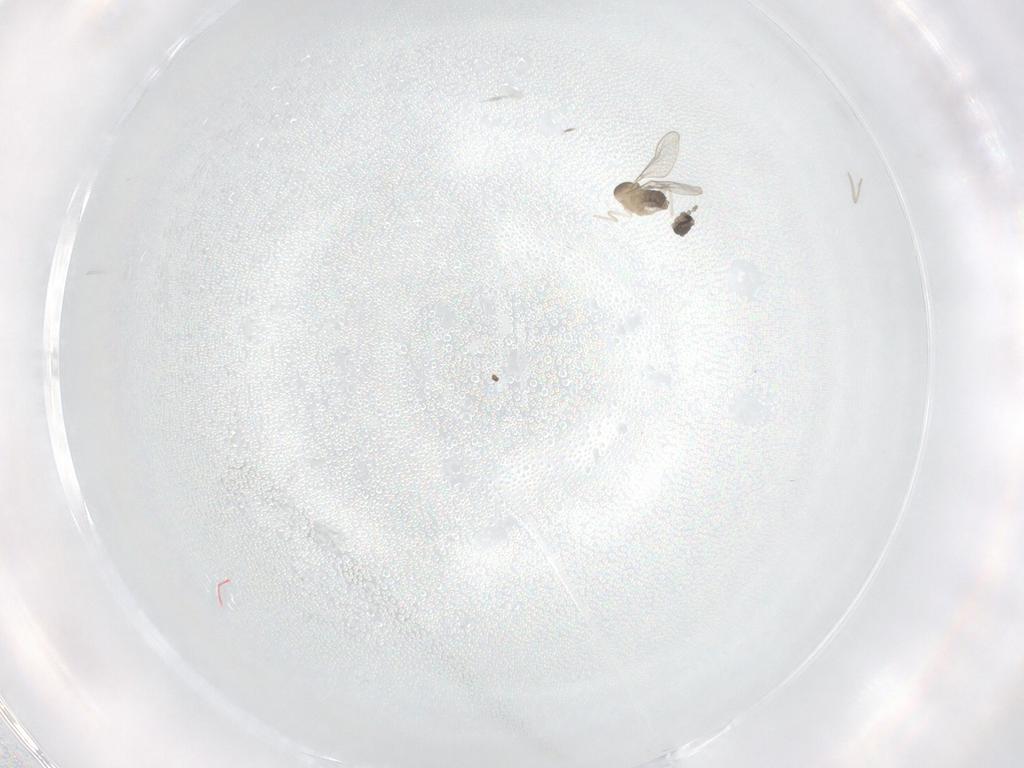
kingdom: Animalia
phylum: Arthropoda
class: Insecta
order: Diptera
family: Cecidomyiidae
